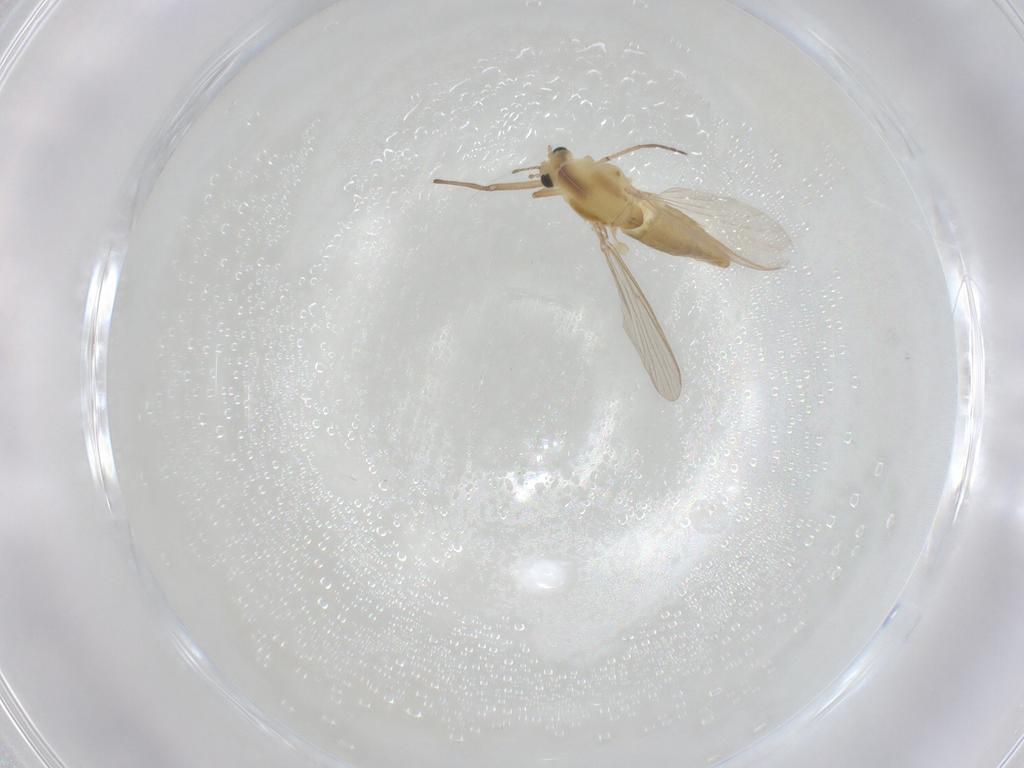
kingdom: Animalia
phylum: Arthropoda
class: Insecta
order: Diptera
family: Chironomidae
